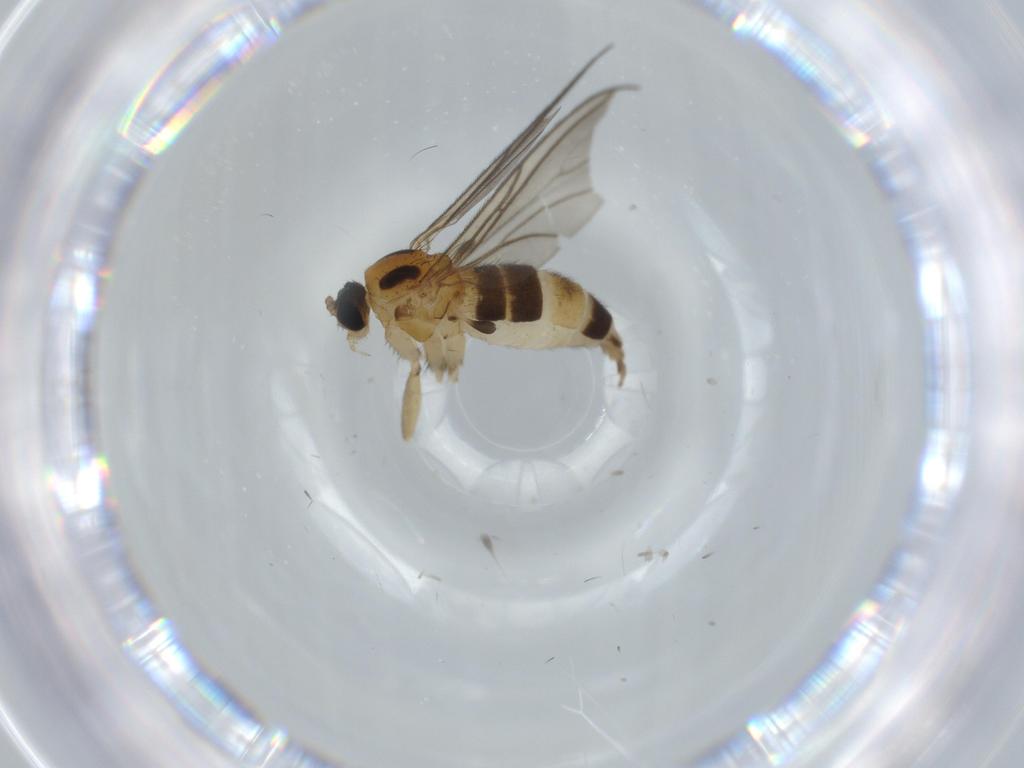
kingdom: Animalia
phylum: Arthropoda
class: Insecta
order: Diptera
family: Sciaridae
